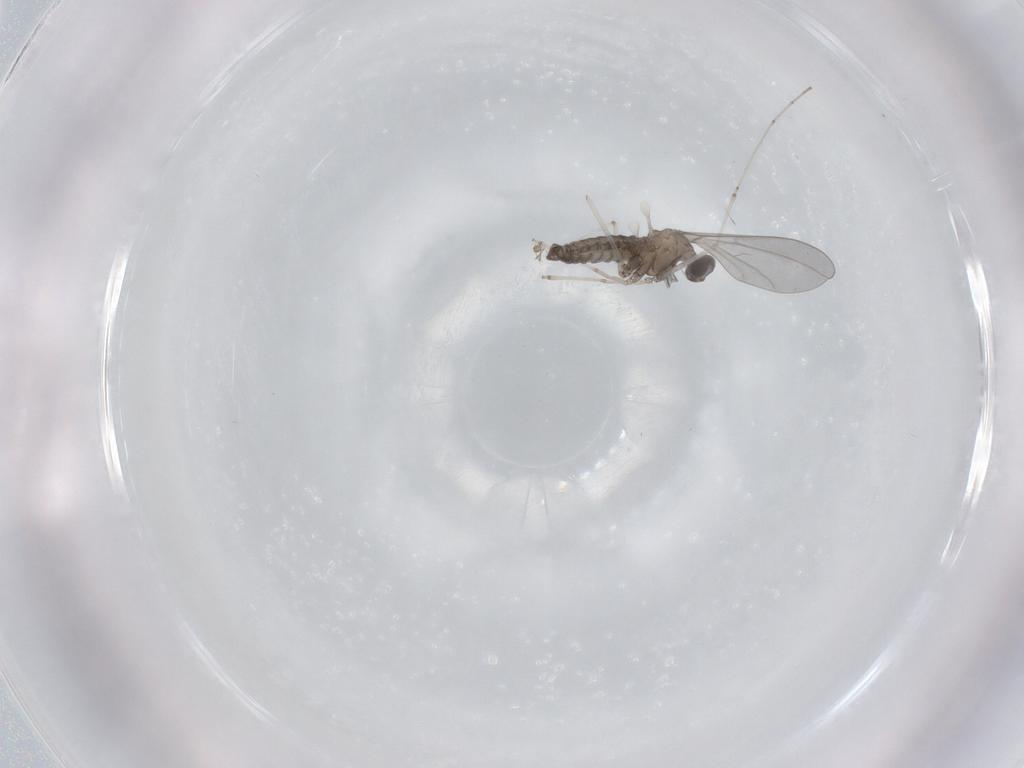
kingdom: Animalia
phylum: Arthropoda
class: Insecta
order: Diptera
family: Cecidomyiidae
